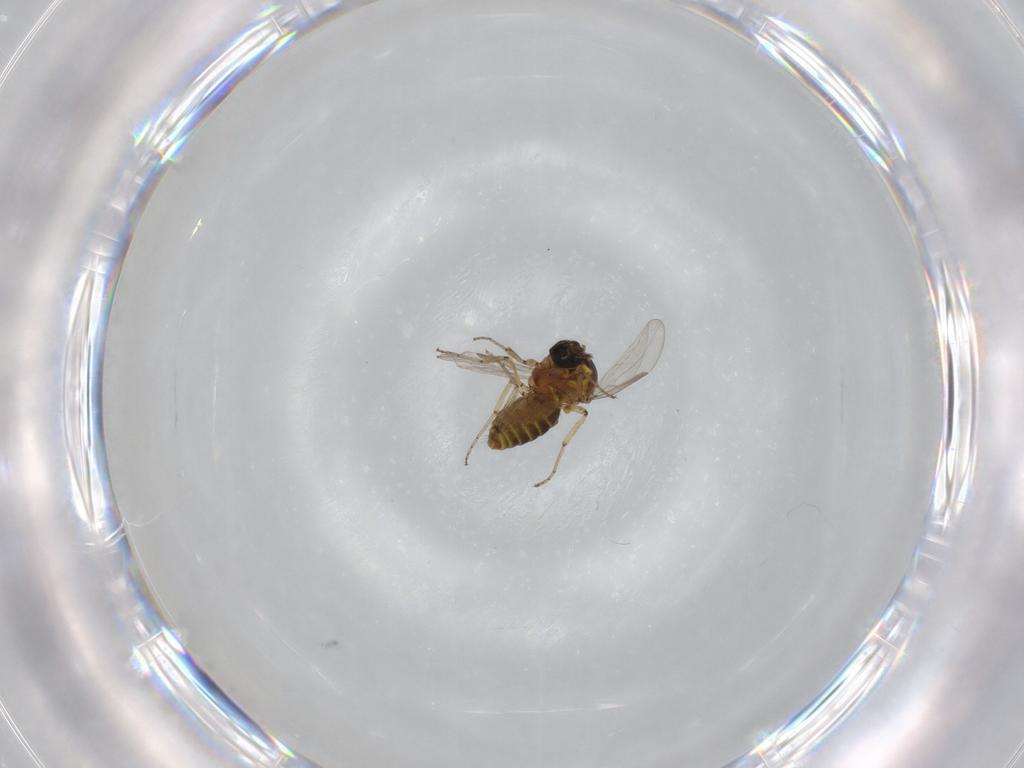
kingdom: Animalia
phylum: Arthropoda
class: Insecta
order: Diptera
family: Ceratopogonidae
